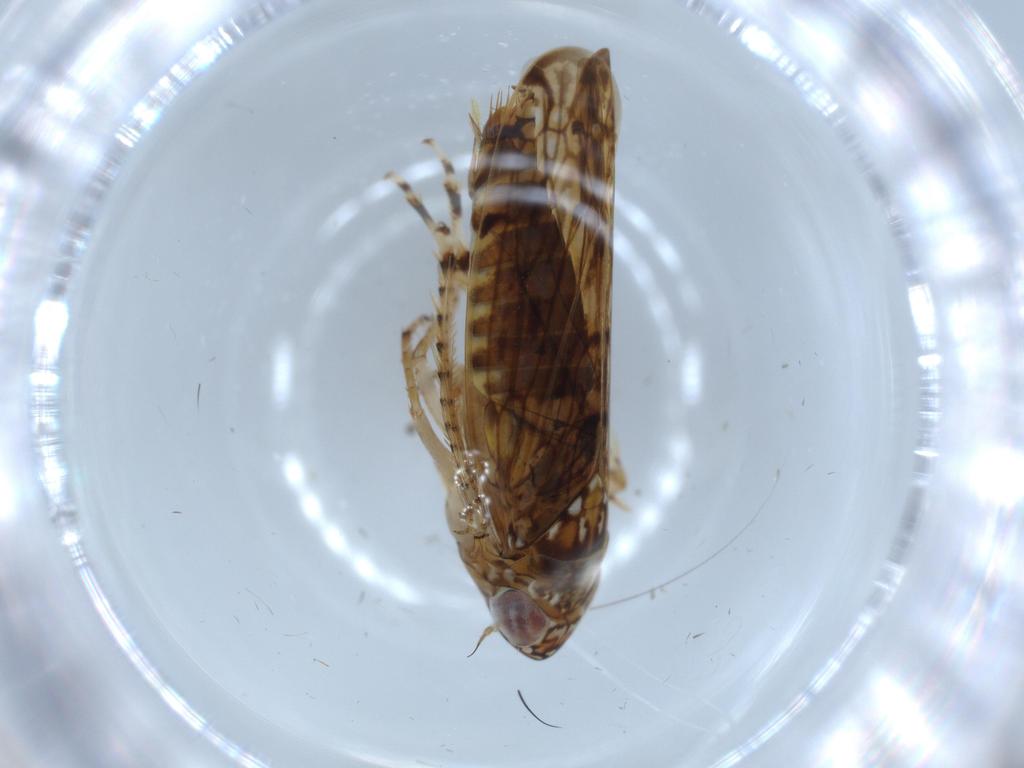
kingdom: Animalia
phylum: Arthropoda
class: Insecta
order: Hemiptera
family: Cicadellidae
